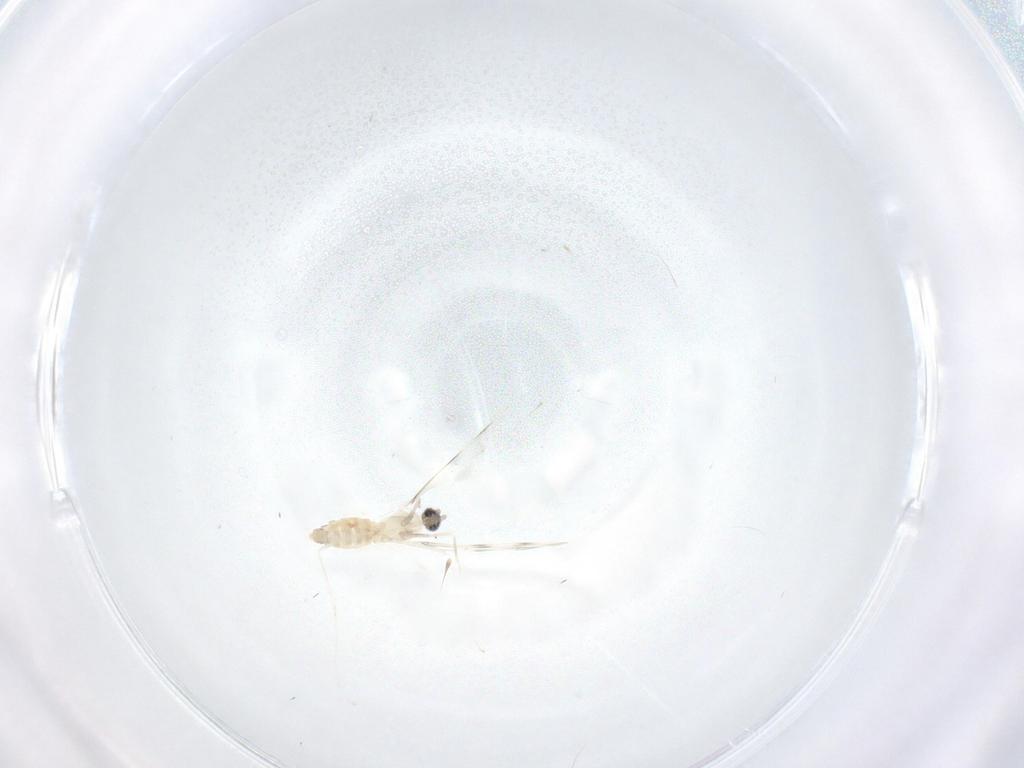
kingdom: Animalia
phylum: Arthropoda
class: Insecta
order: Diptera
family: Cecidomyiidae
